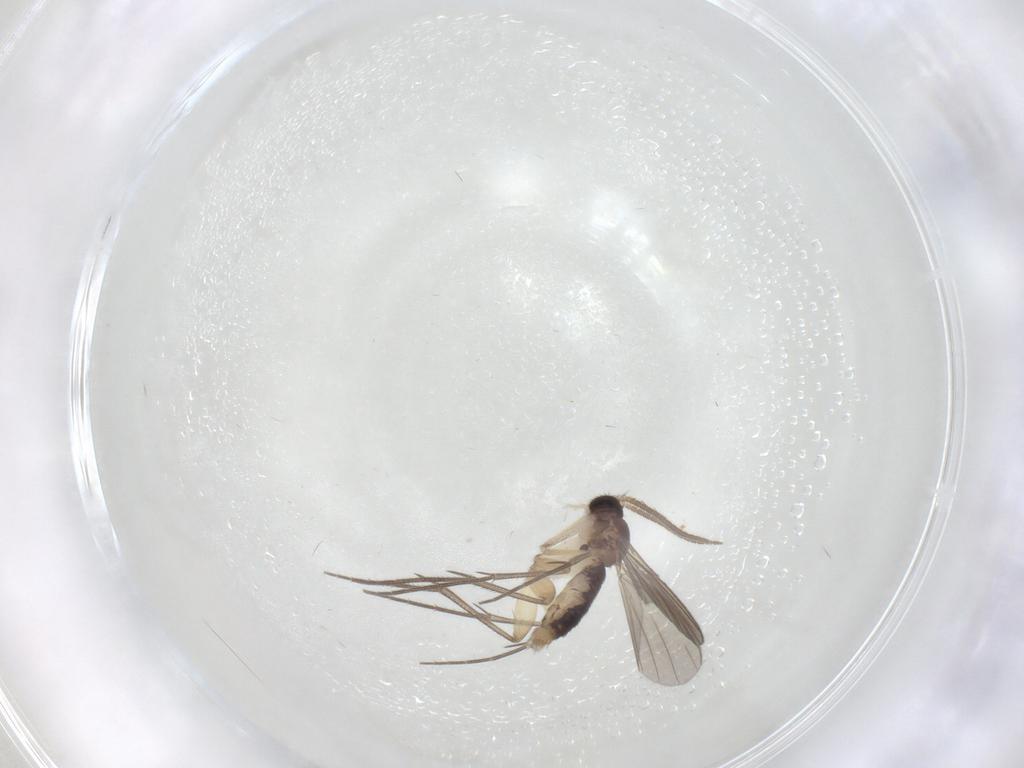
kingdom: Animalia
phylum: Arthropoda
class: Insecta
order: Diptera
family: Mycetophilidae
